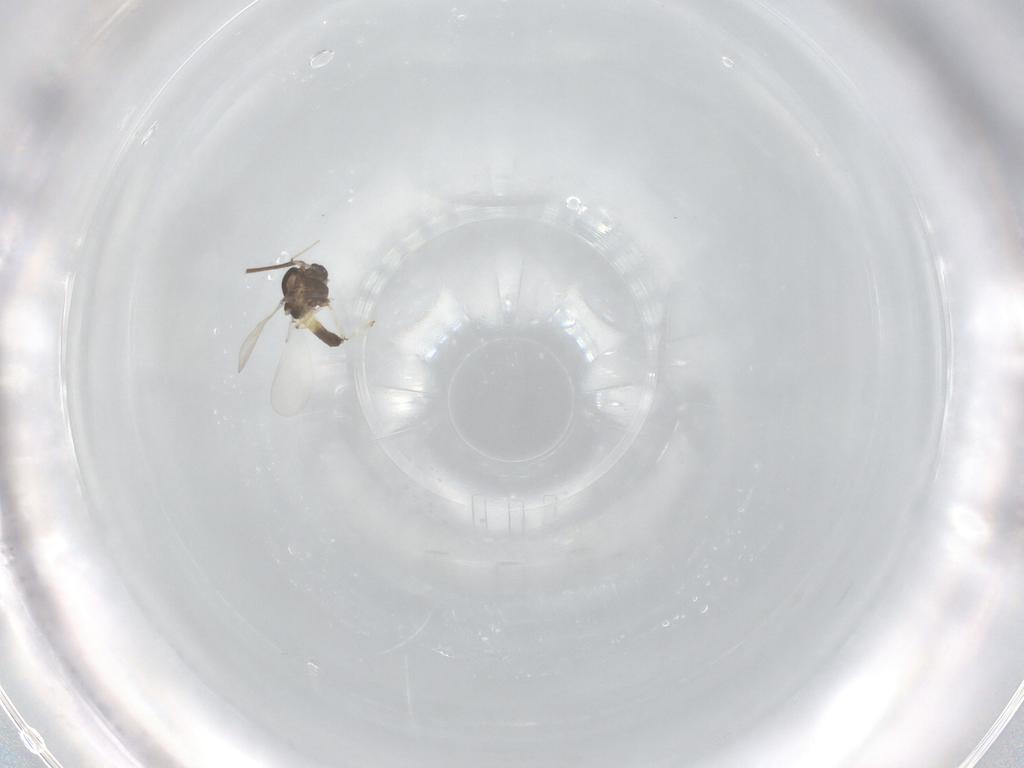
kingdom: Animalia
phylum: Arthropoda
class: Insecta
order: Diptera
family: Chironomidae
